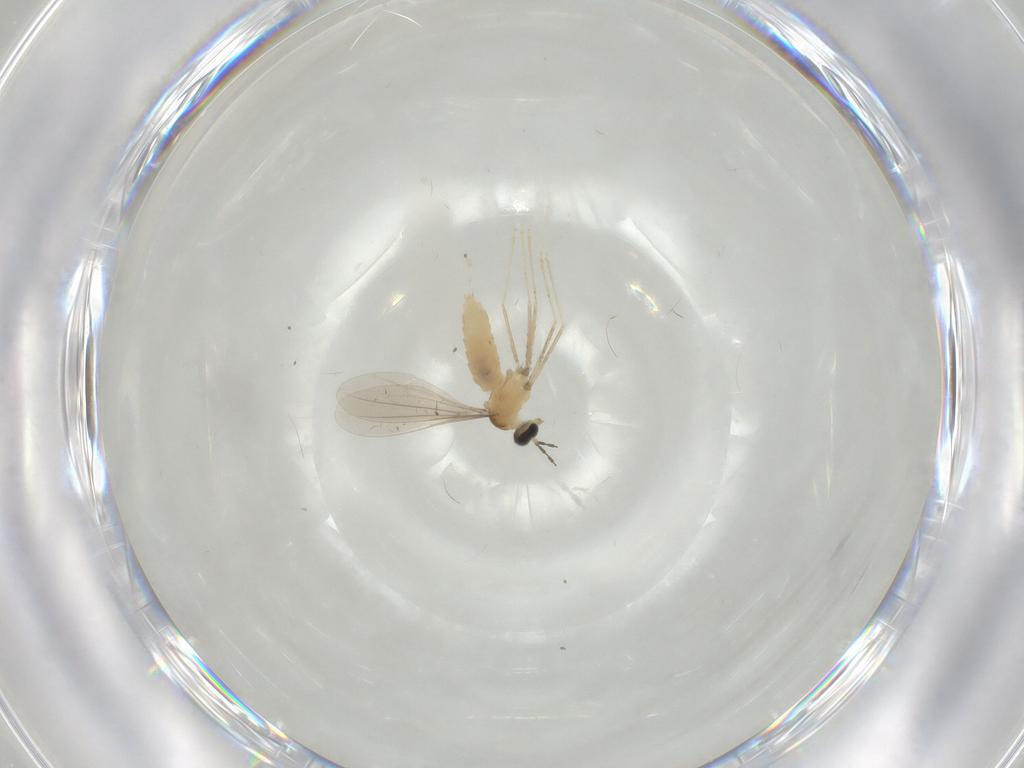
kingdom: Animalia
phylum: Arthropoda
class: Insecta
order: Diptera
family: Cecidomyiidae
